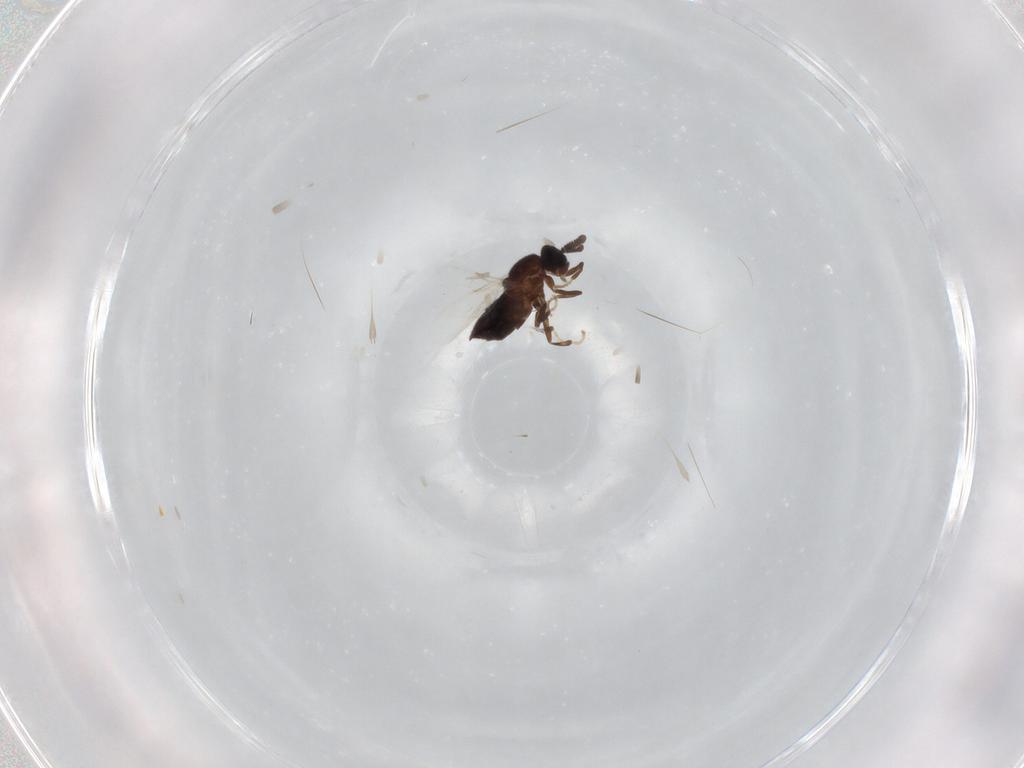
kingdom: Animalia
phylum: Arthropoda
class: Insecta
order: Diptera
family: Scatopsidae
